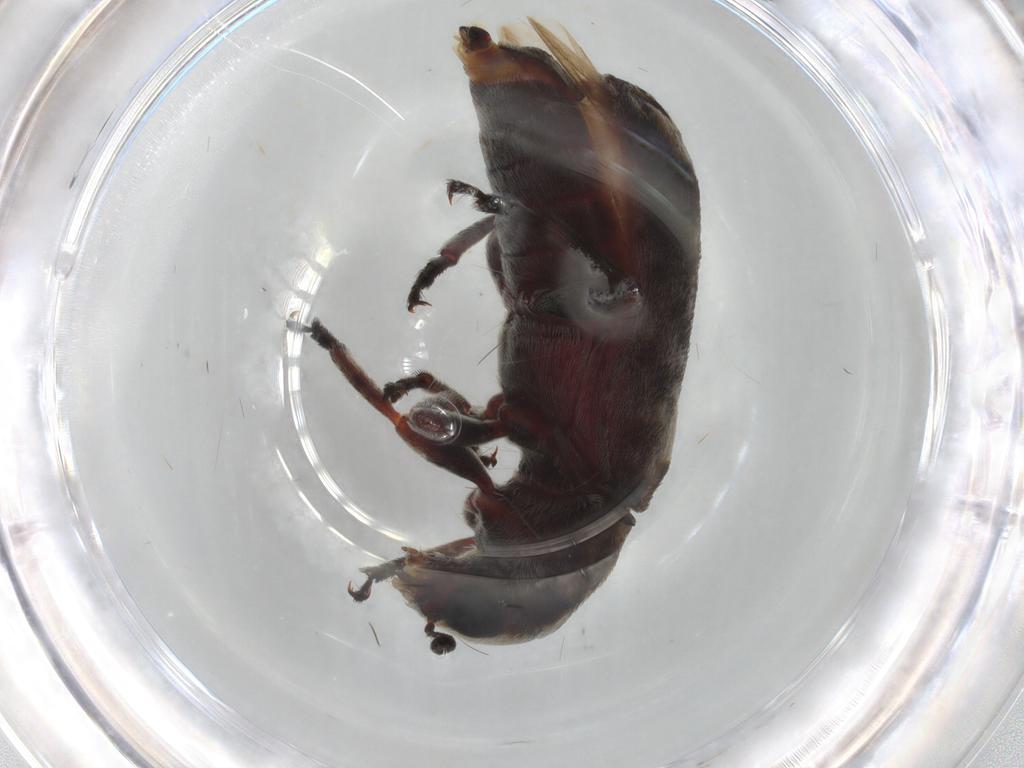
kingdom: Animalia
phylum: Arthropoda
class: Insecta
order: Coleoptera
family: Anthribidae
